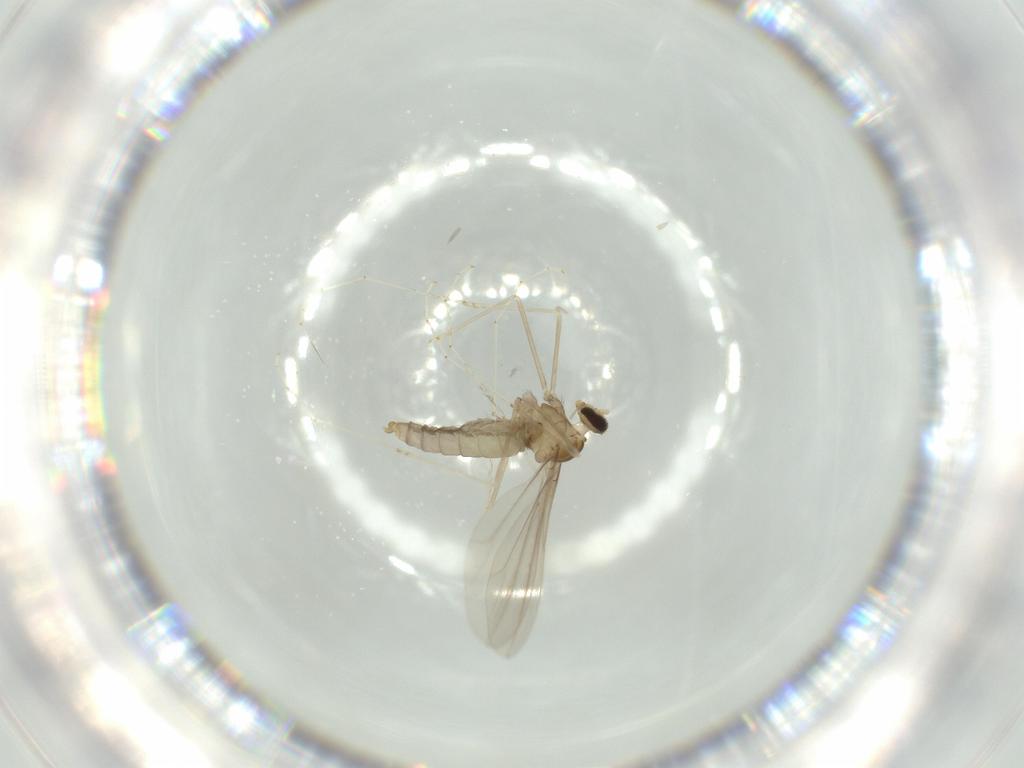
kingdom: Animalia
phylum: Arthropoda
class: Insecta
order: Diptera
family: Cecidomyiidae
